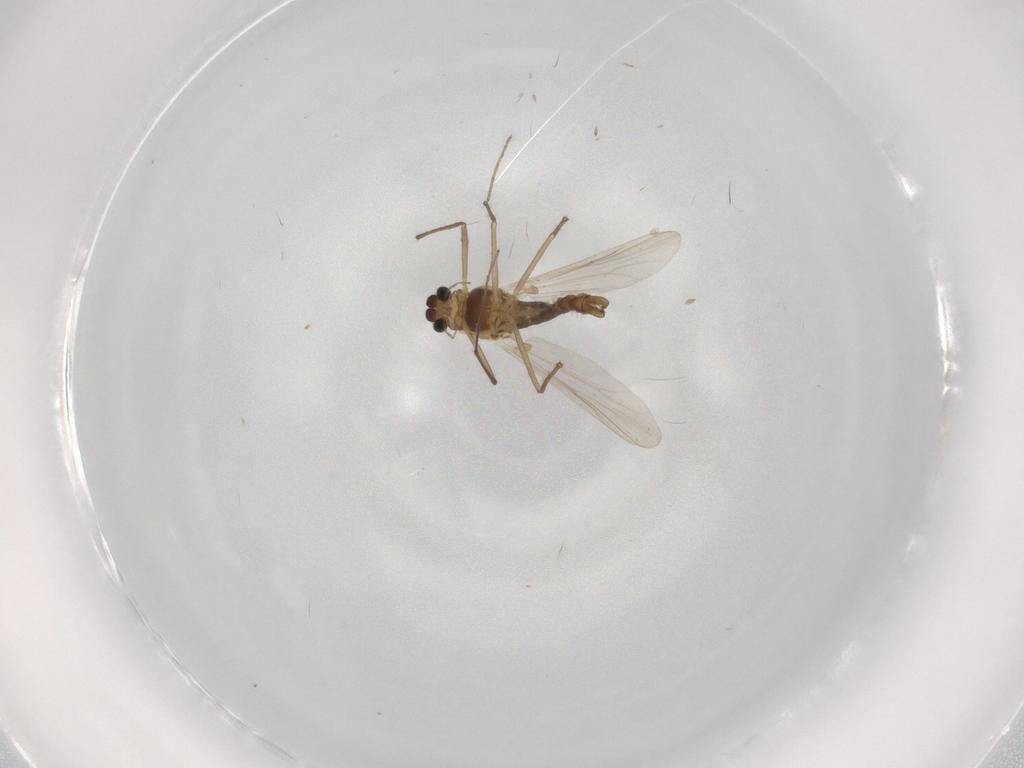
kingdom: Animalia
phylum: Arthropoda
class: Insecta
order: Diptera
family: Chironomidae
